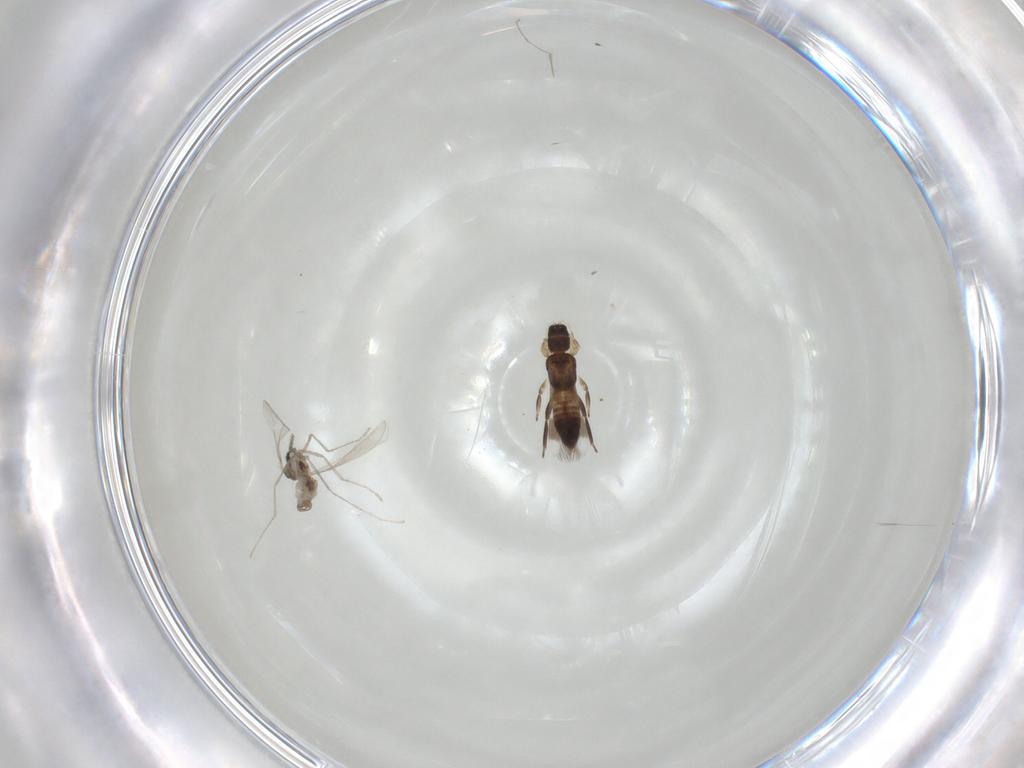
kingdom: Animalia
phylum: Arthropoda
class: Insecta
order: Thysanoptera
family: Aeolothripidae
